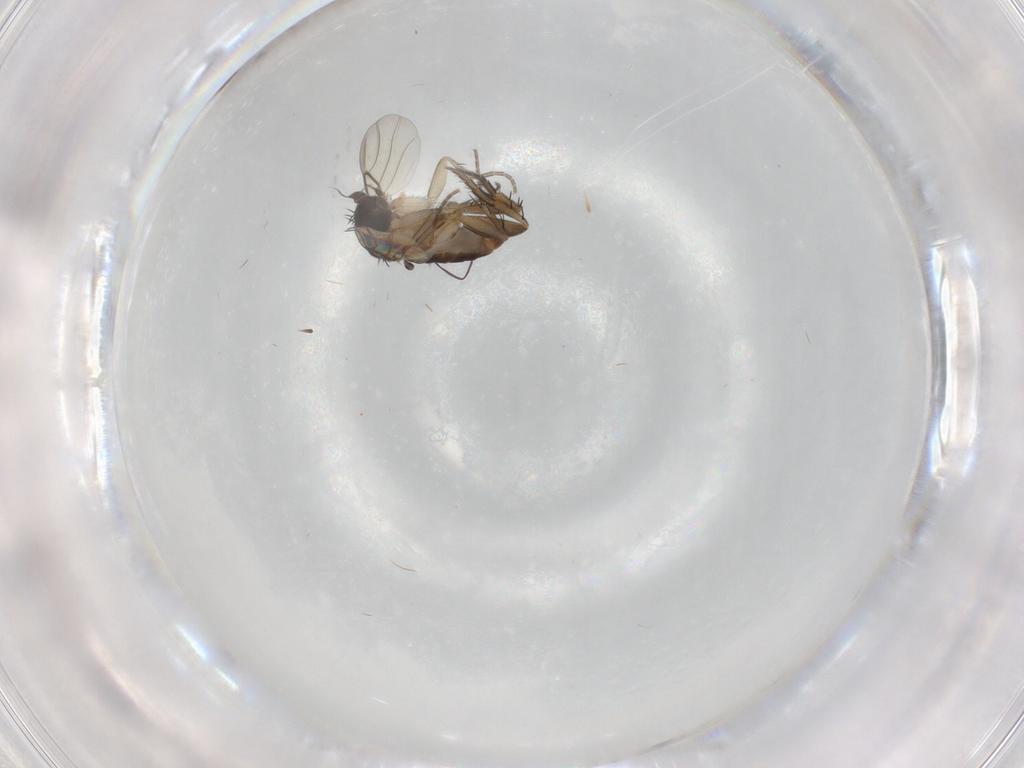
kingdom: Animalia
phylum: Arthropoda
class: Insecta
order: Diptera
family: Phoridae
